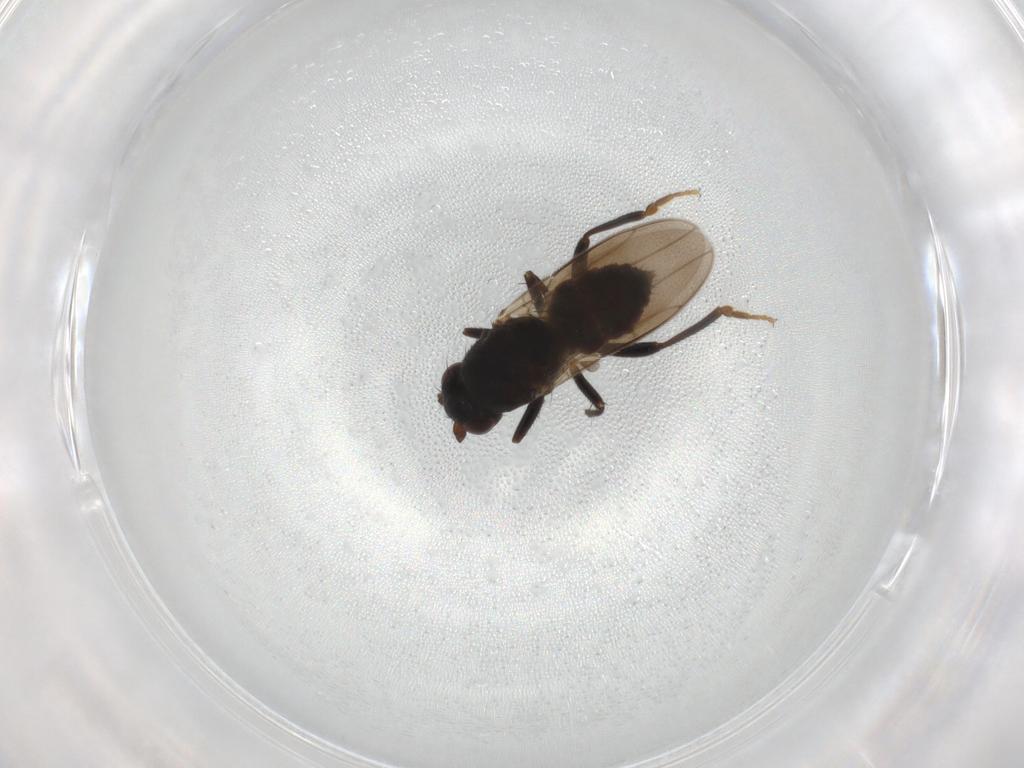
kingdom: Animalia
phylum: Arthropoda
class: Insecta
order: Diptera
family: Sphaeroceridae
